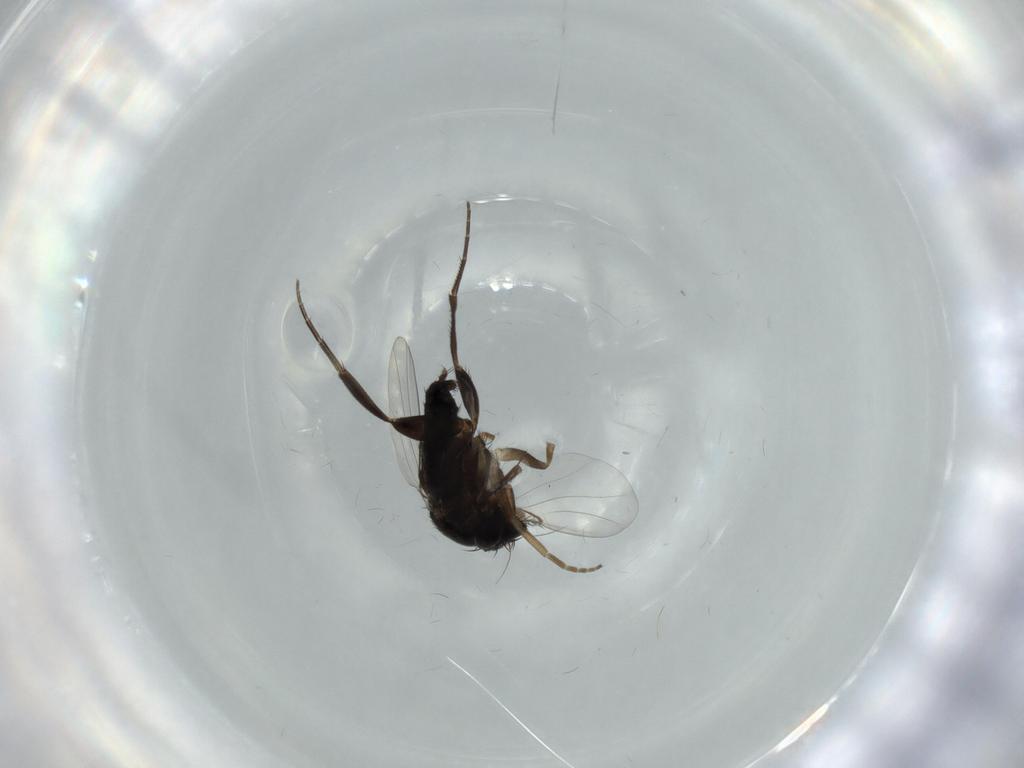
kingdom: Animalia
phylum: Arthropoda
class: Insecta
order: Diptera
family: Phoridae
